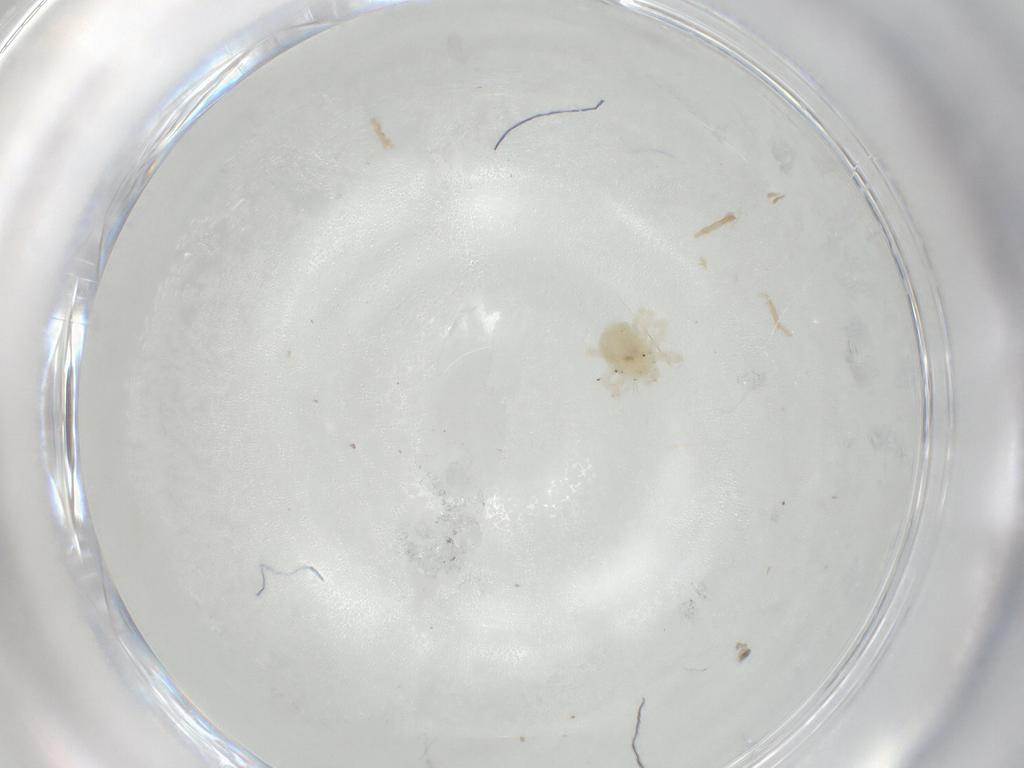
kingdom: Animalia
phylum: Arthropoda
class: Arachnida
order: Trombidiformes
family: Anystidae
